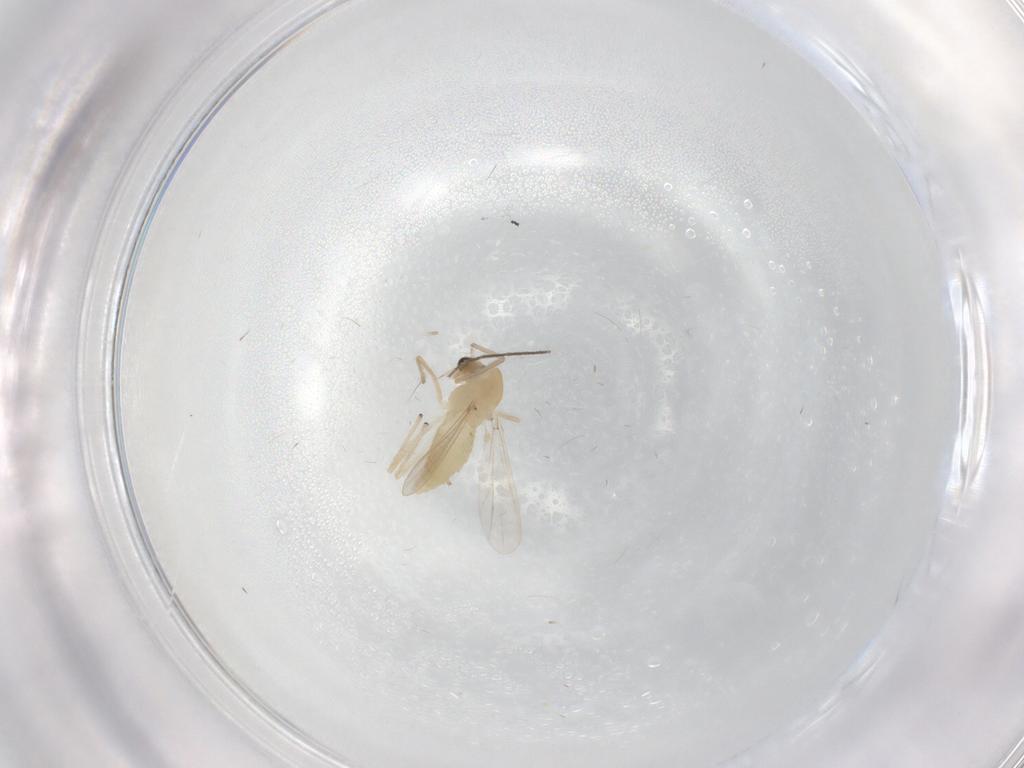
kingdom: Animalia
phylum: Arthropoda
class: Insecta
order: Diptera
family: Chironomidae
